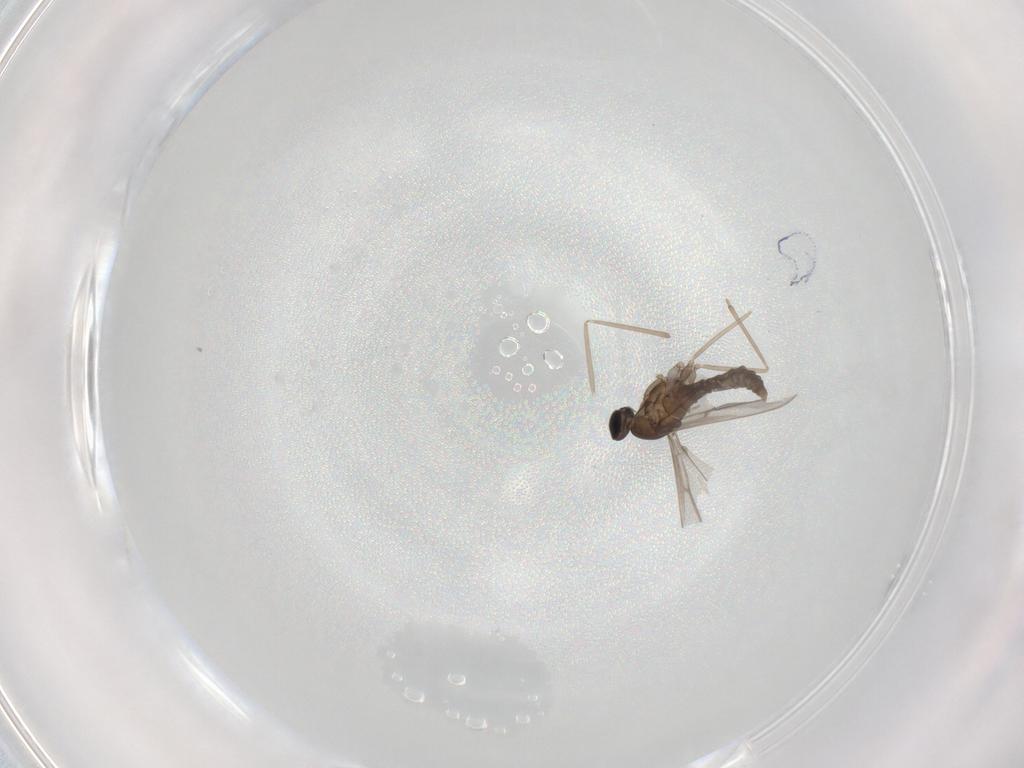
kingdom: Animalia
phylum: Arthropoda
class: Insecta
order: Diptera
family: Cecidomyiidae
